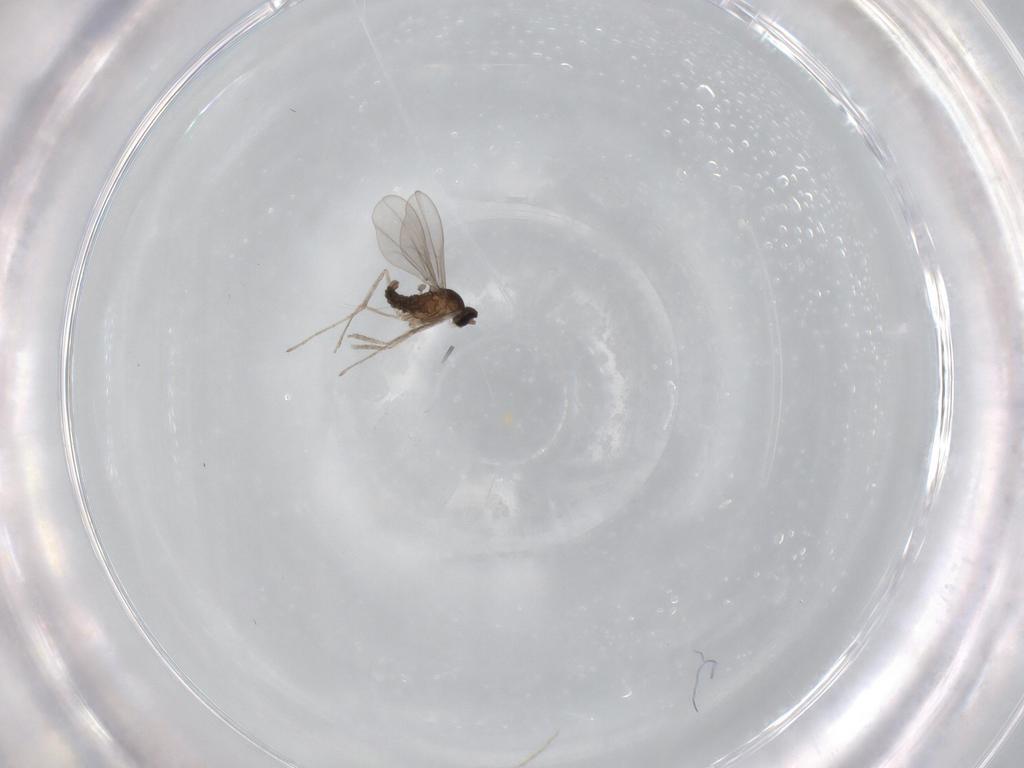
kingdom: Animalia
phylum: Arthropoda
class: Insecta
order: Diptera
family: Cecidomyiidae
